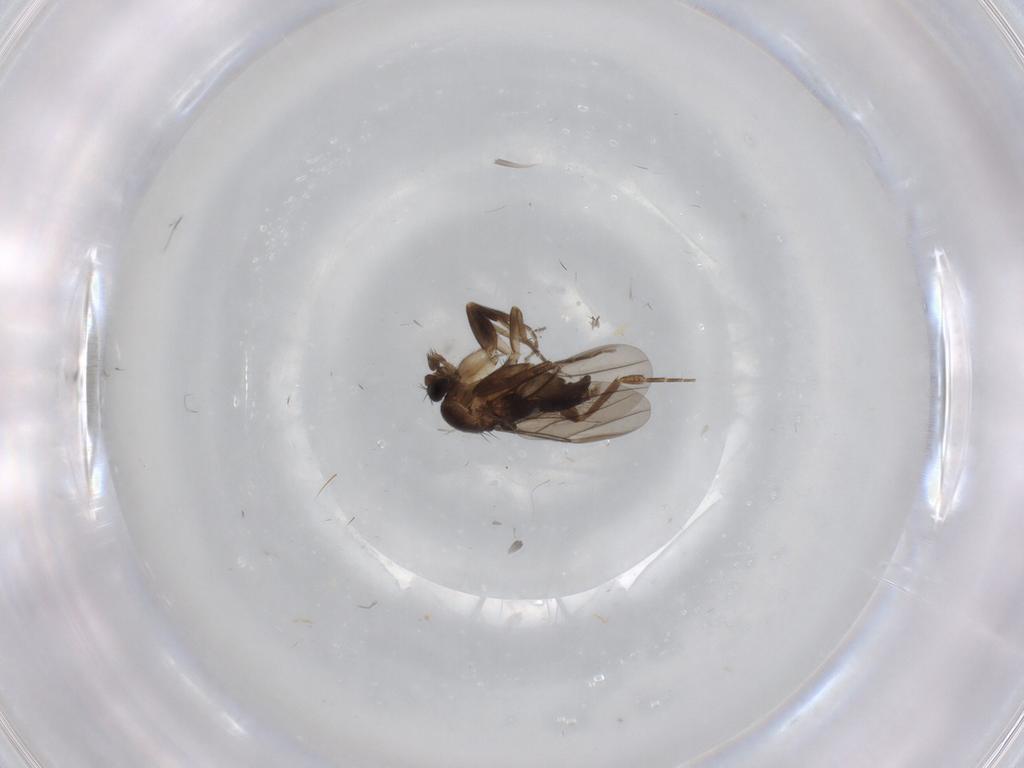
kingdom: Animalia
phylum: Arthropoda
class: Insecta
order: Diptera
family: Cecidomyiidae
